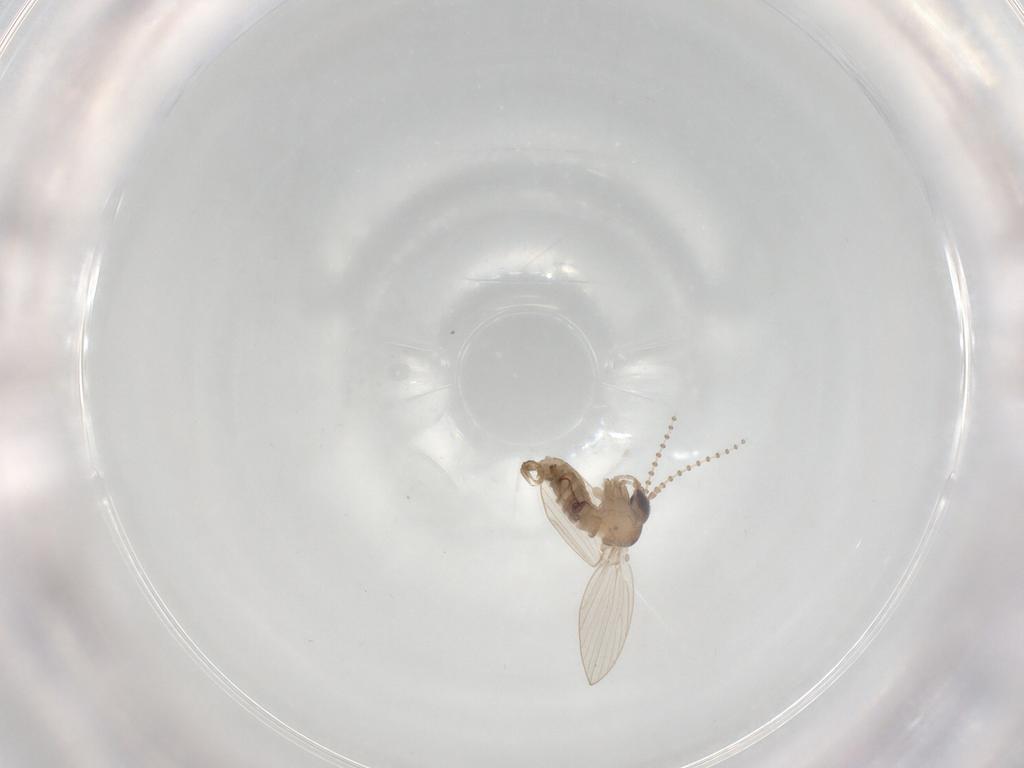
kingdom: Animalia
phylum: Arthropoda
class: Insecta
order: Diptera
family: Psychodidae
